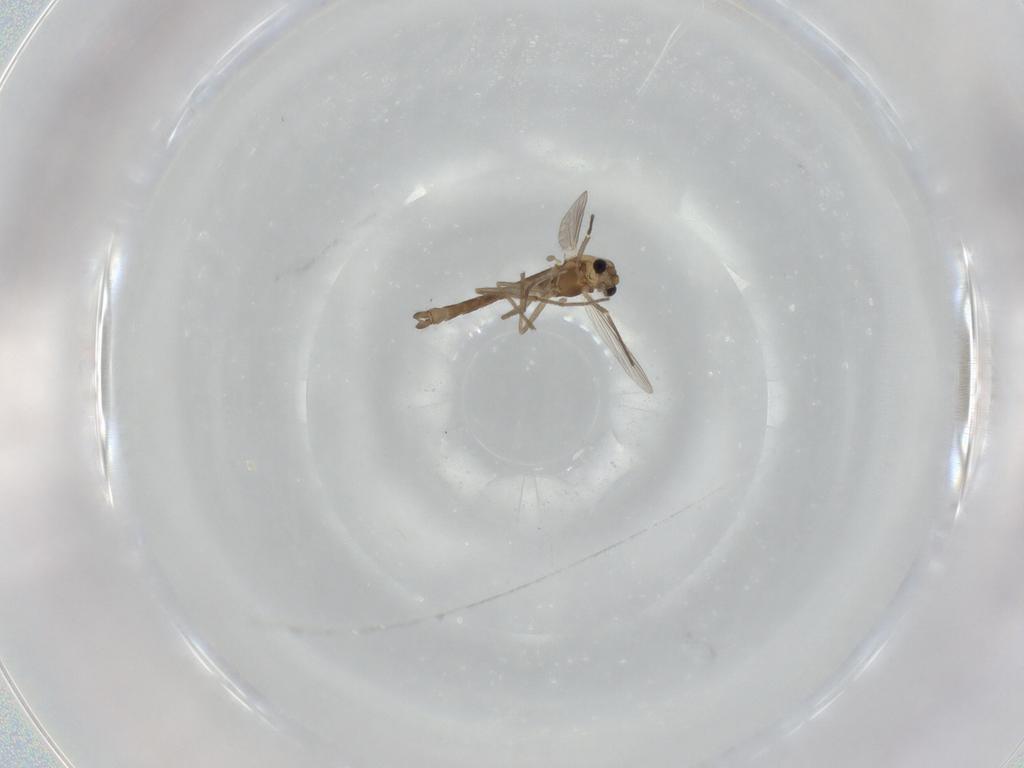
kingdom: Animalia
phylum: Arthropoda
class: Insecta
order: Diptera
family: Chironomidae
